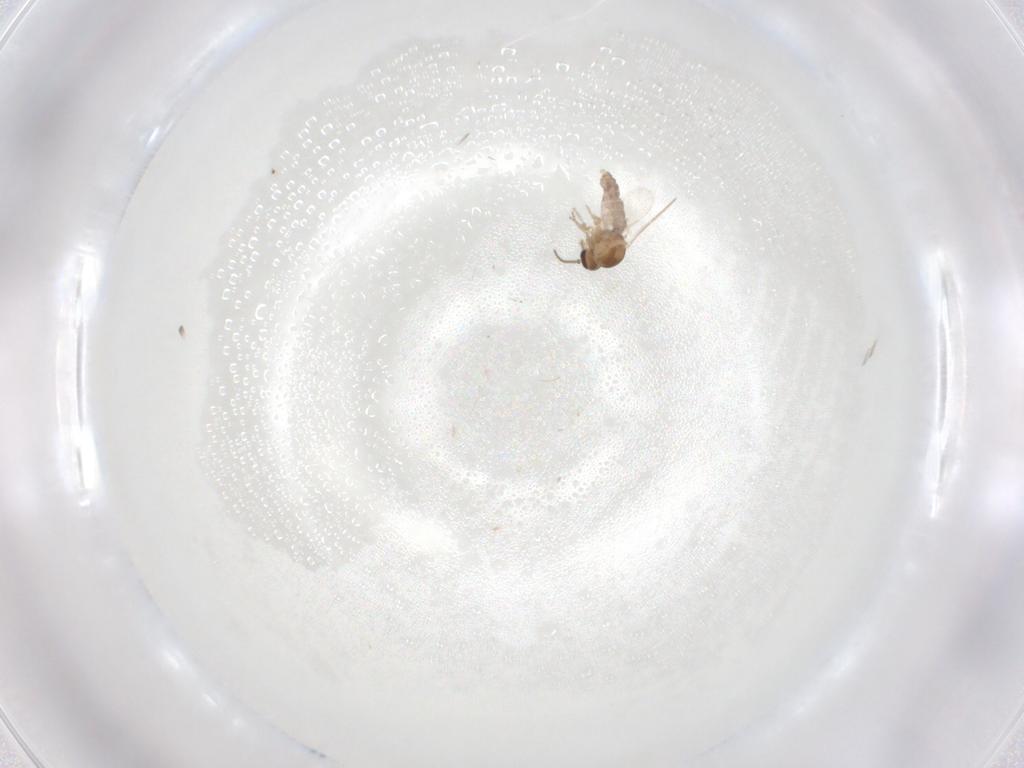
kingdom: Animalia
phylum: Arthropoda
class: Insecta
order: Diptera
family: Ceratopogonidae
